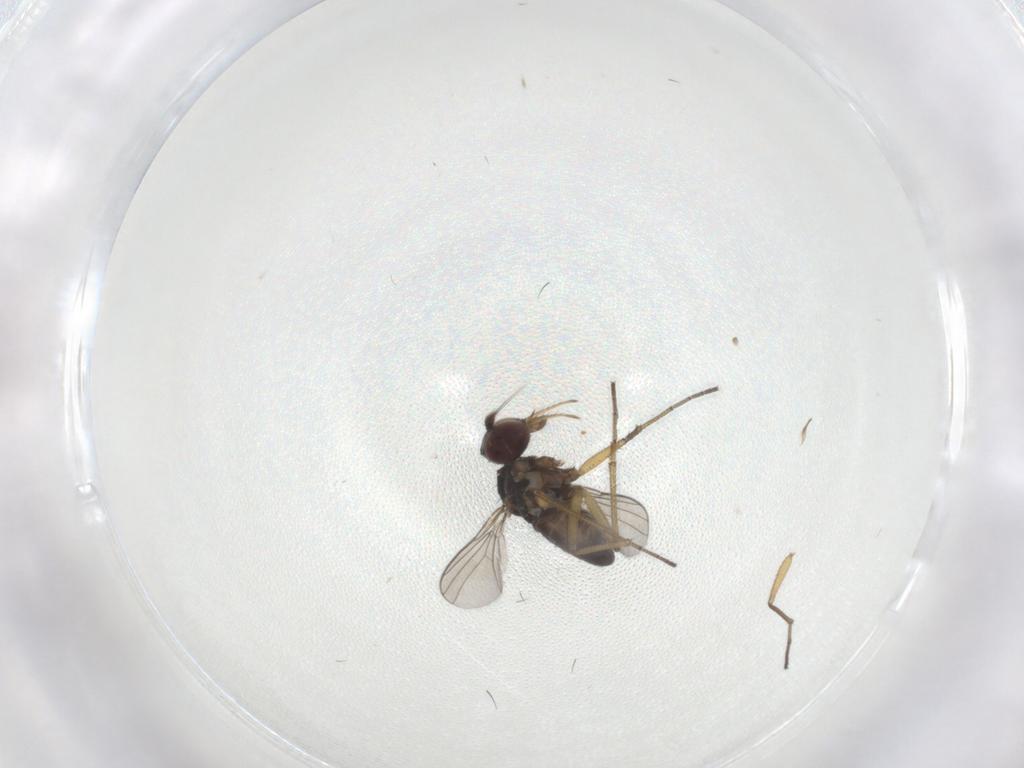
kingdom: Animalia
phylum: Arthropoda
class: Insecta
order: Diptera
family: Dolichopodidae
